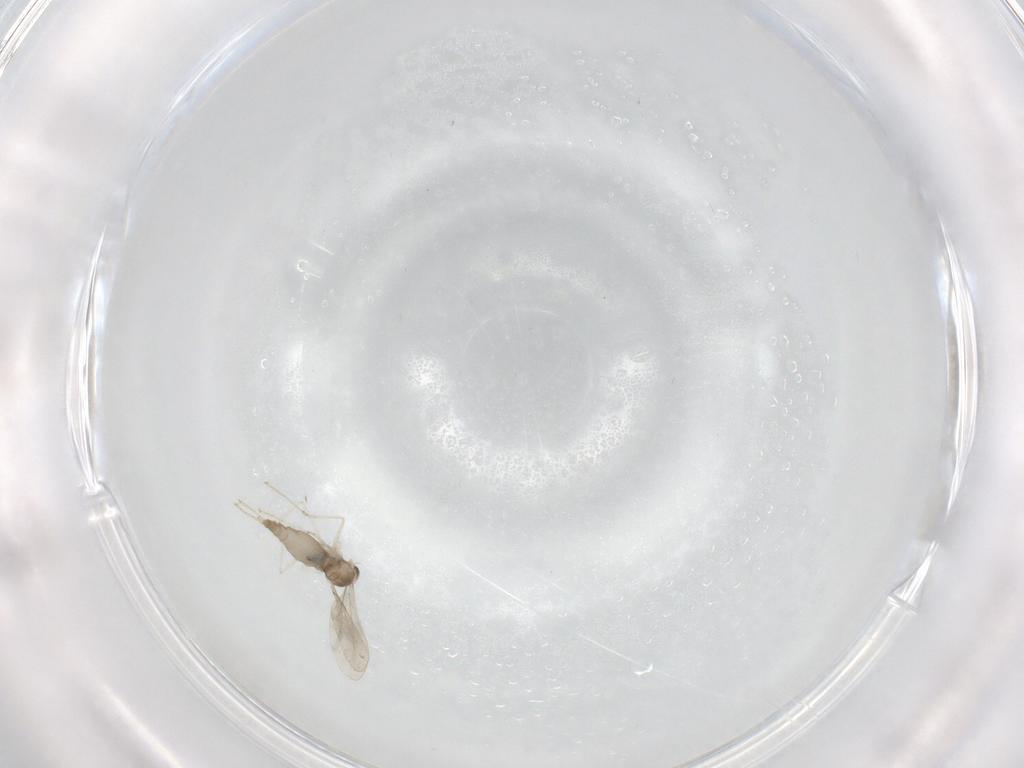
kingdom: Animalia
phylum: Arthropoda
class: Insecta
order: Diptera
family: Cecidomyiidae
